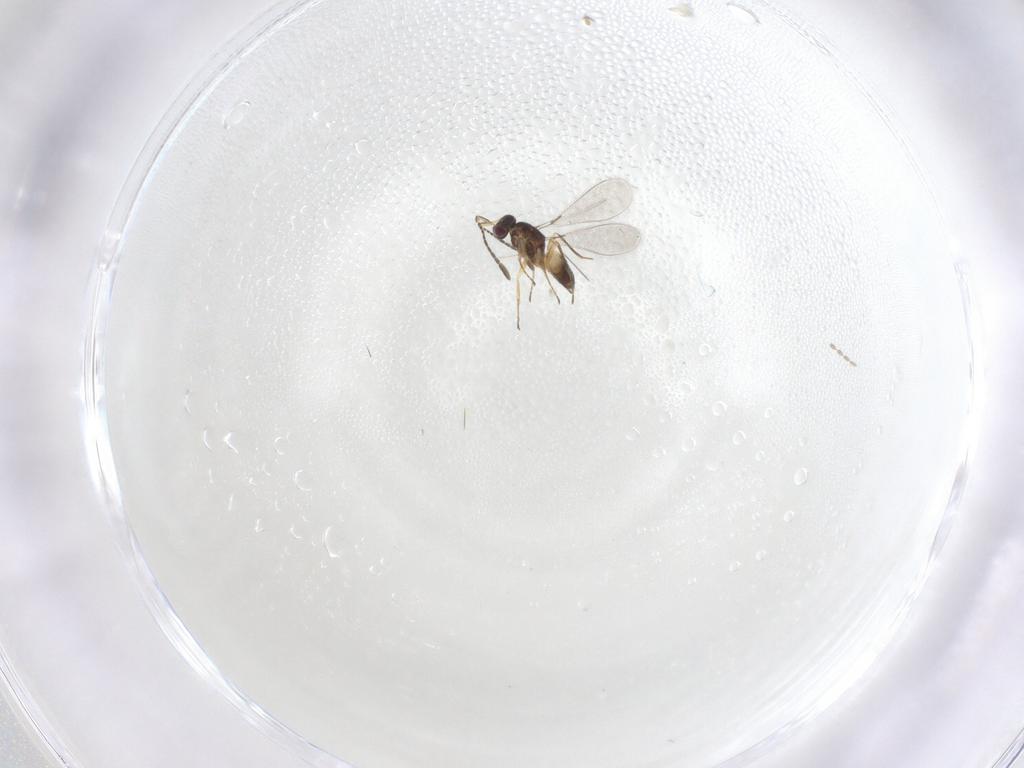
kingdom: Animalia
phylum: Arthropoda
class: Insecta
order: Hymenoptera
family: Mymaridae
